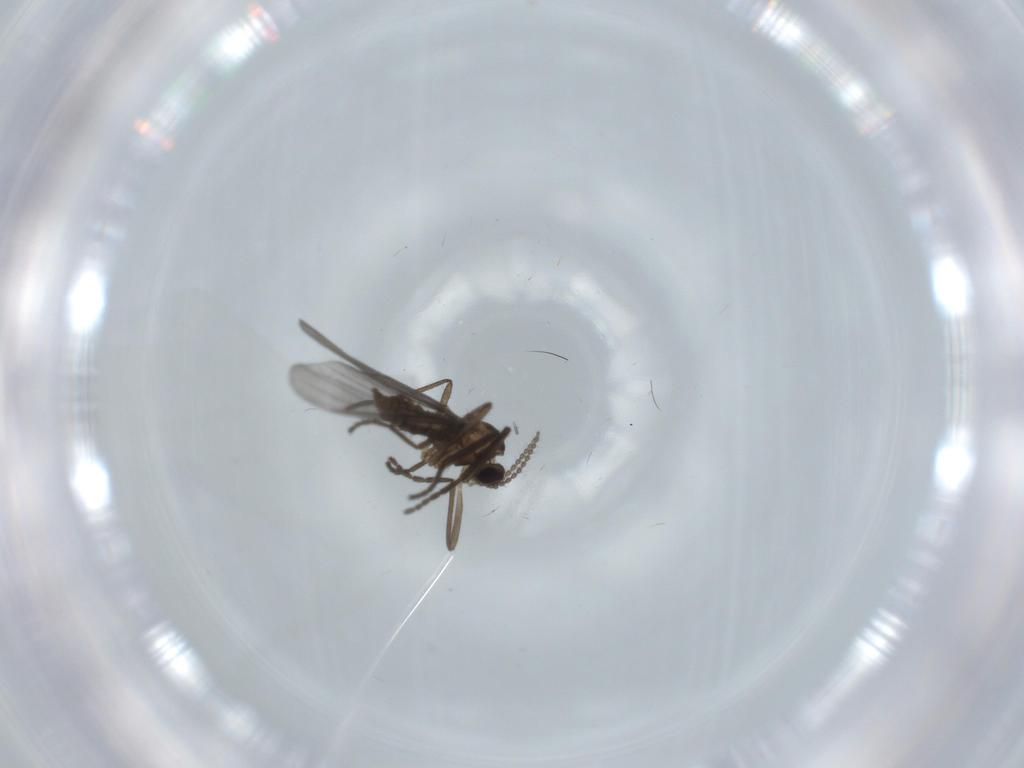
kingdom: Animalia
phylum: Arthropoda
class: Insecta
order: Diptera
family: Cecidomyiidae
